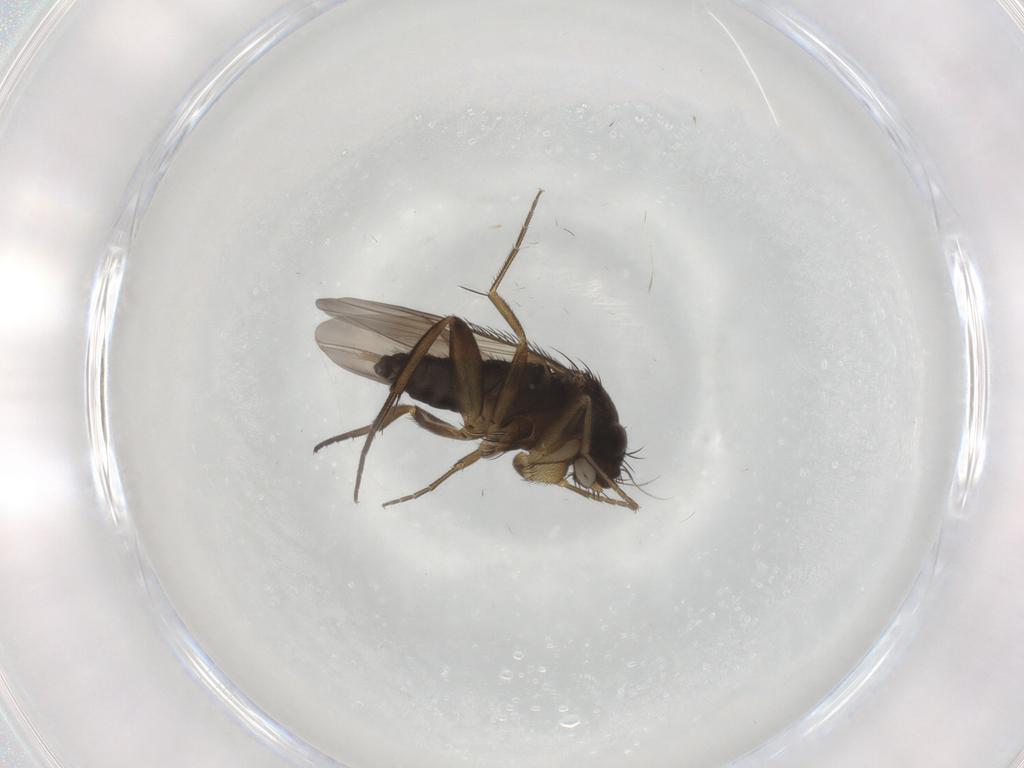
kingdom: Animalia
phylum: Arthropoda
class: Insecta
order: Diptera
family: Phoridae
